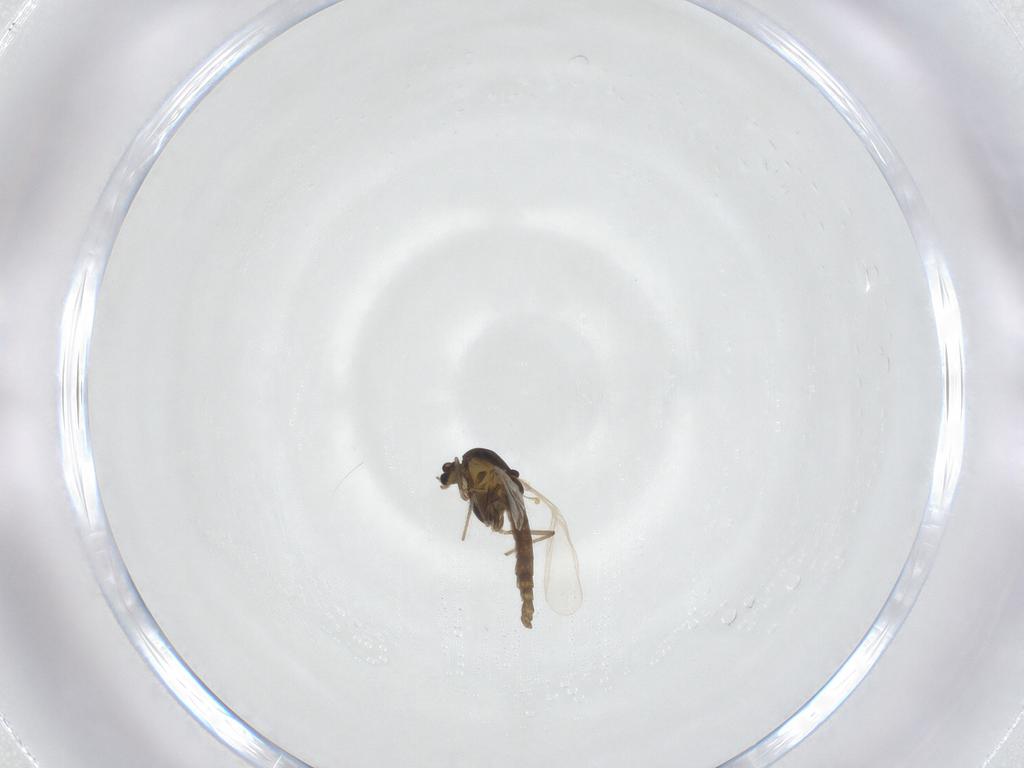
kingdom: Animalia
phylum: Arthropoda
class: Insecta
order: Diptera
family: Chironomidae
